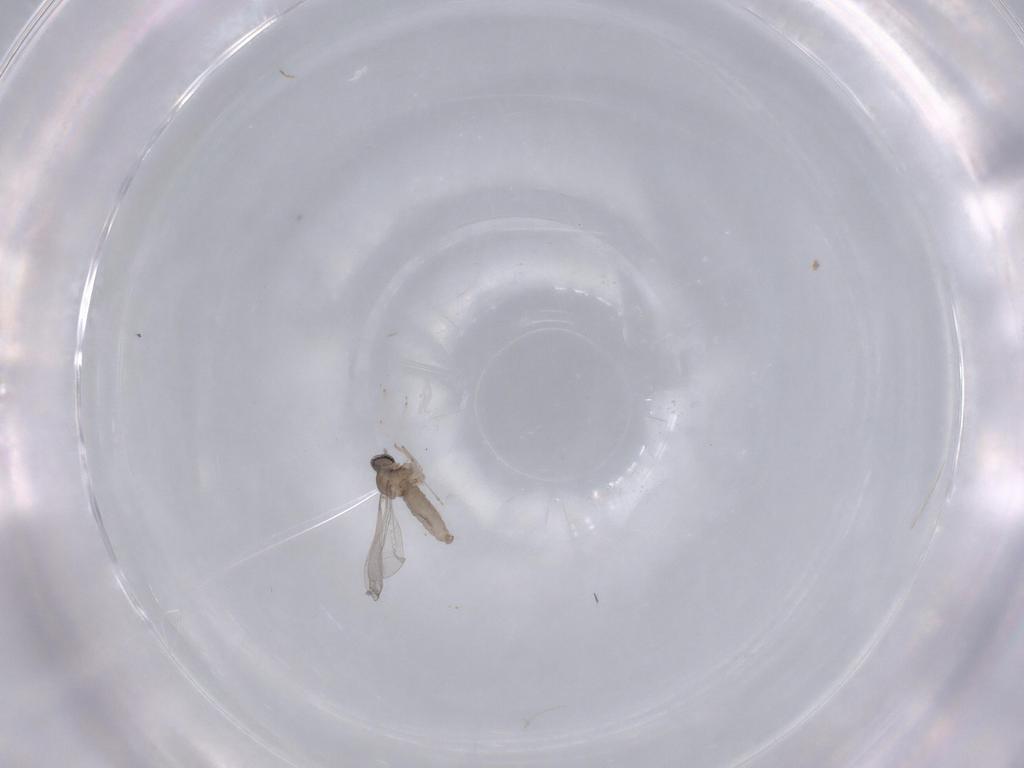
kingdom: Animalia
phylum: Arthropoda
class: Insecta
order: Diptera
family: Cecidomyiidae
